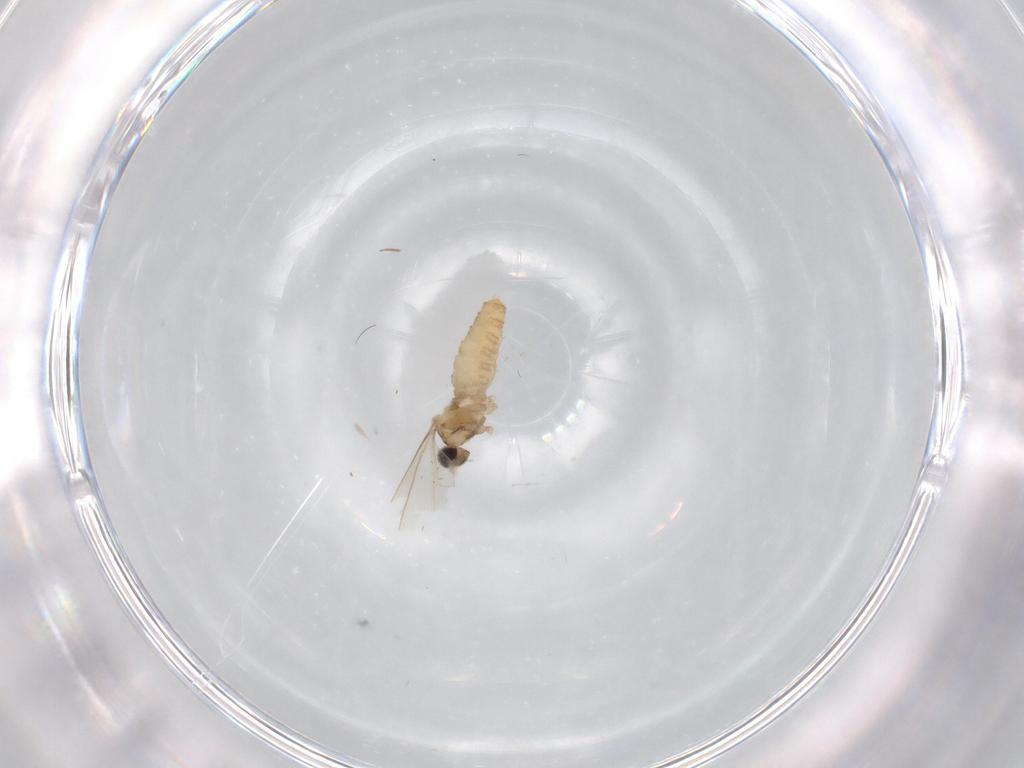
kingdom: Animalia
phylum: Arthropoda
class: Insecta
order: Diptera
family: Cecidomyiidae
